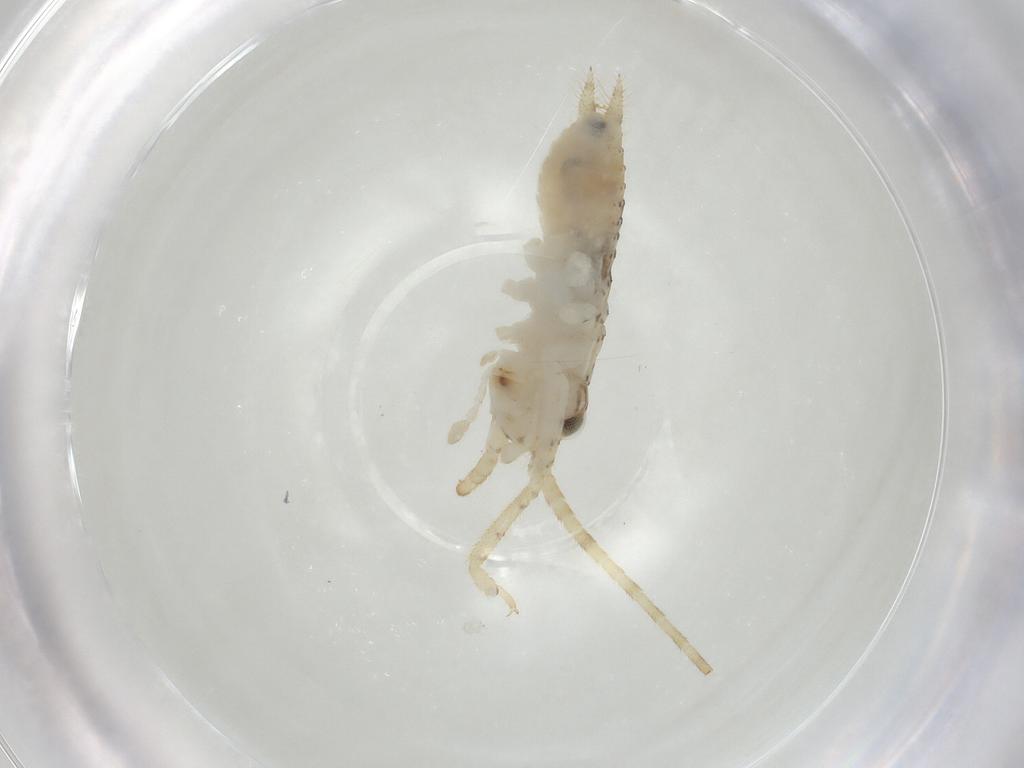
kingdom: Animalia
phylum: Arthropoda
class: Insecta
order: Orthoptera
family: Gryllidae
